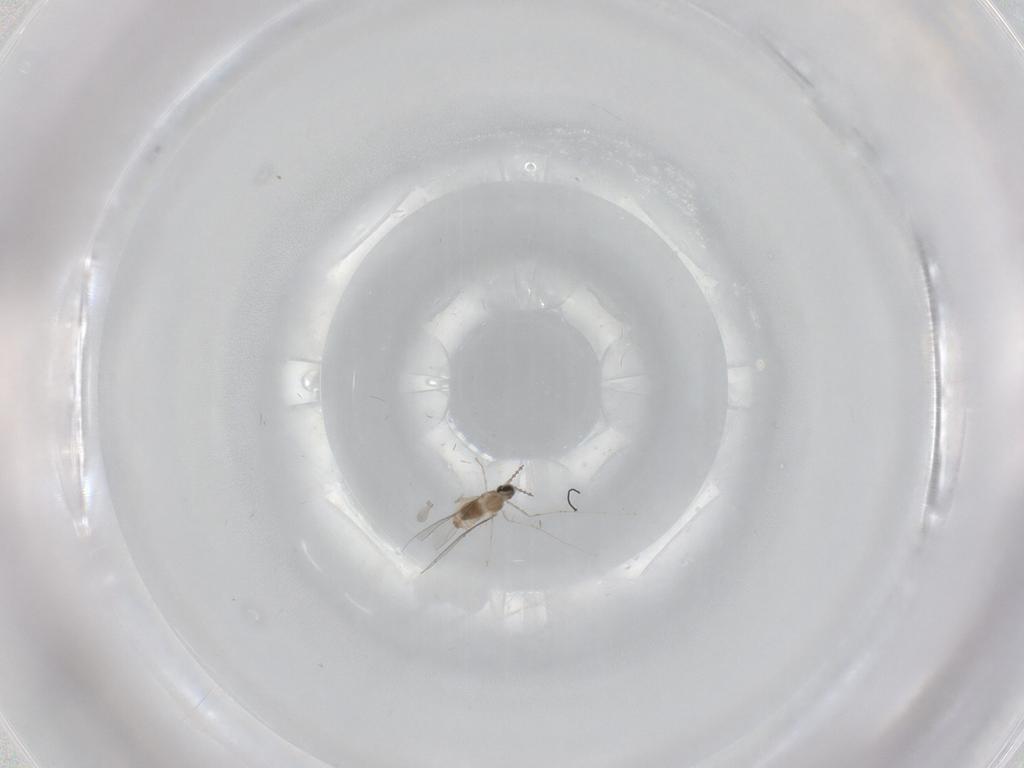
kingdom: Animalia
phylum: Arthropoda
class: Insecta
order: Diptera
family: Cecidomyiidae
